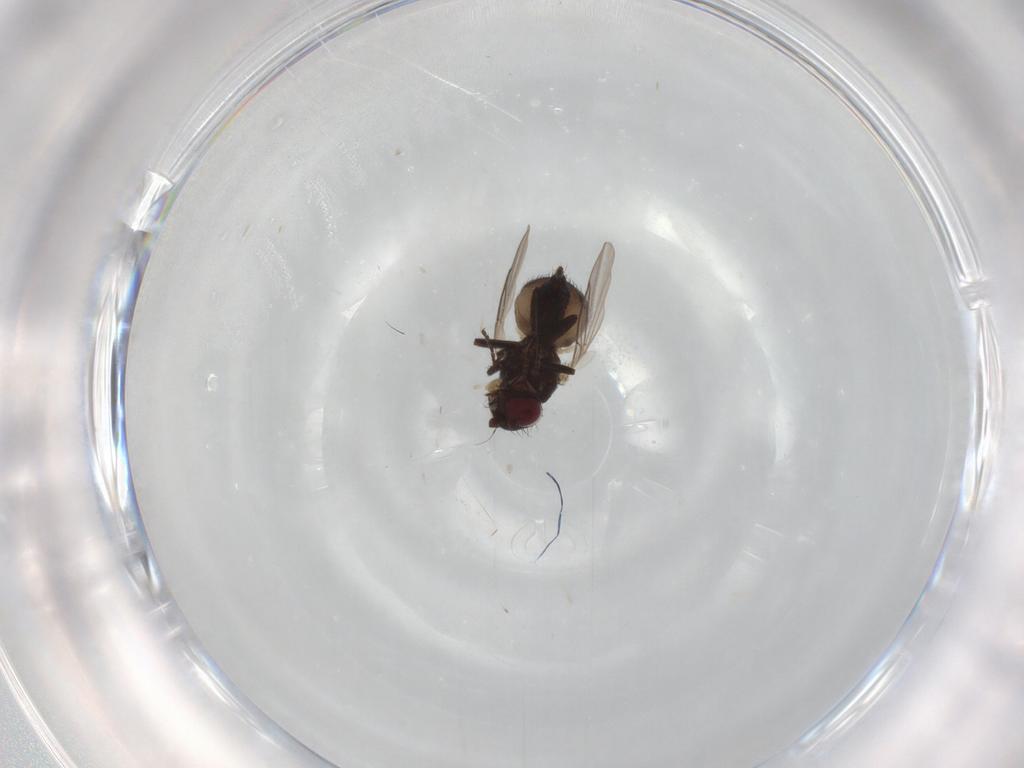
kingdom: Animalia
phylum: Arthropoda
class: Insecta
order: Diptera
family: Agromyzidae
